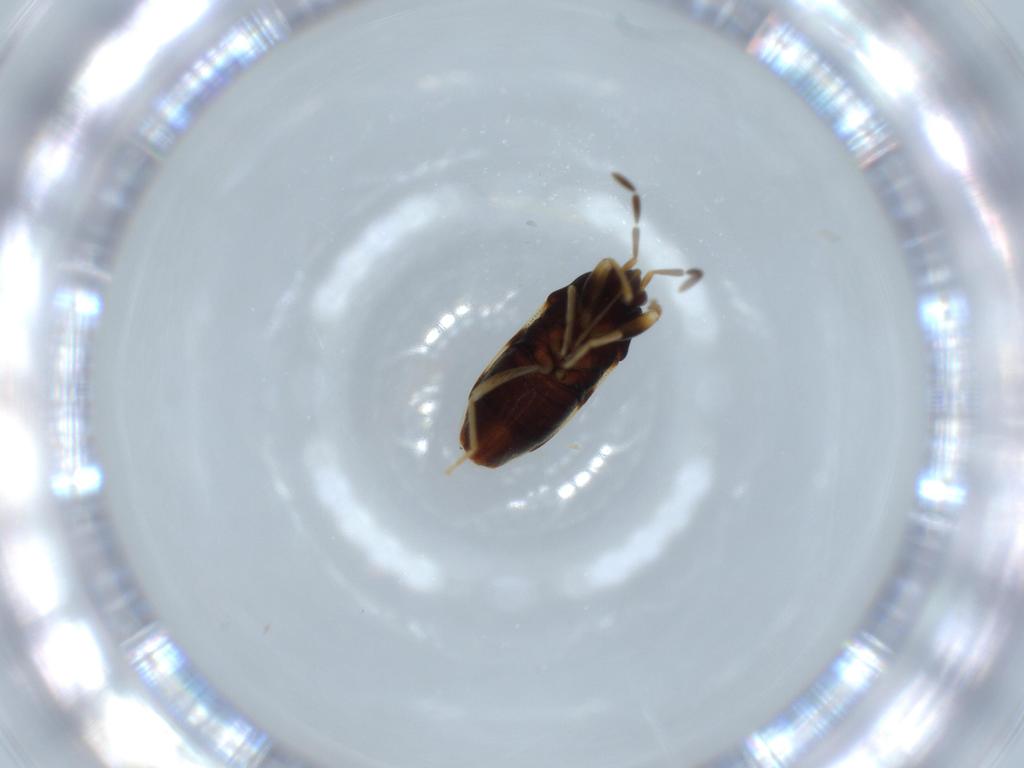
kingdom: Animalia
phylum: Arthropoda
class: Insecta
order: Hemiptera
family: Rhyparochromidae
